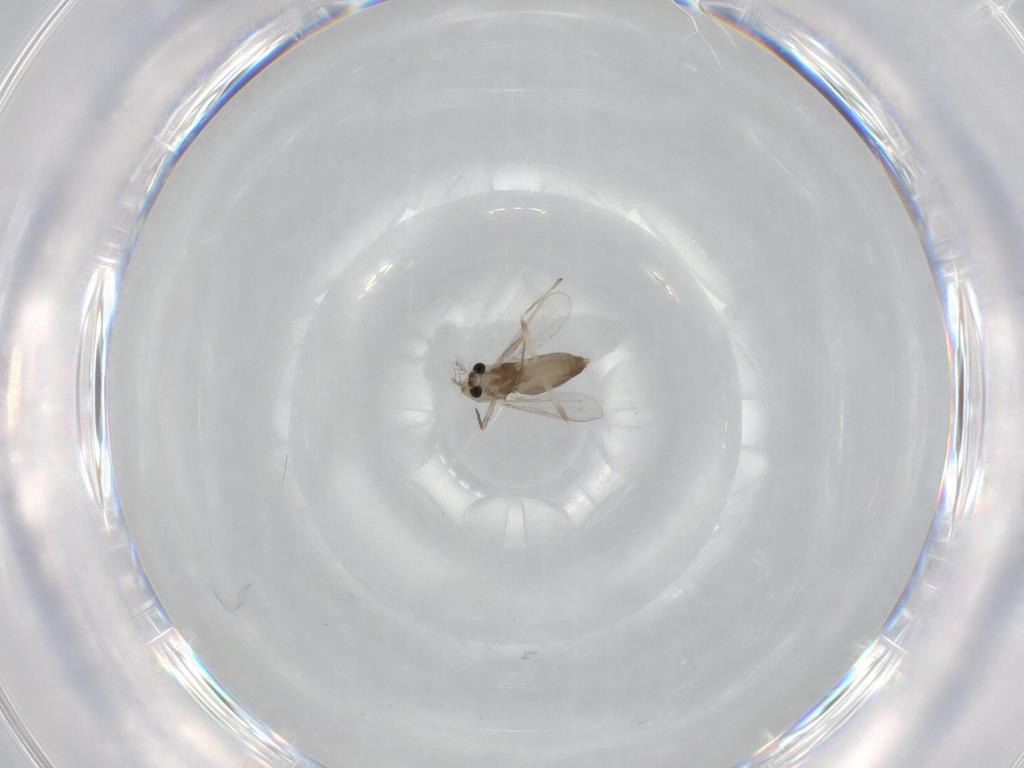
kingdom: Animalia
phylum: Arthropoda
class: Insecta
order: Diptera
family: Chironomidae
